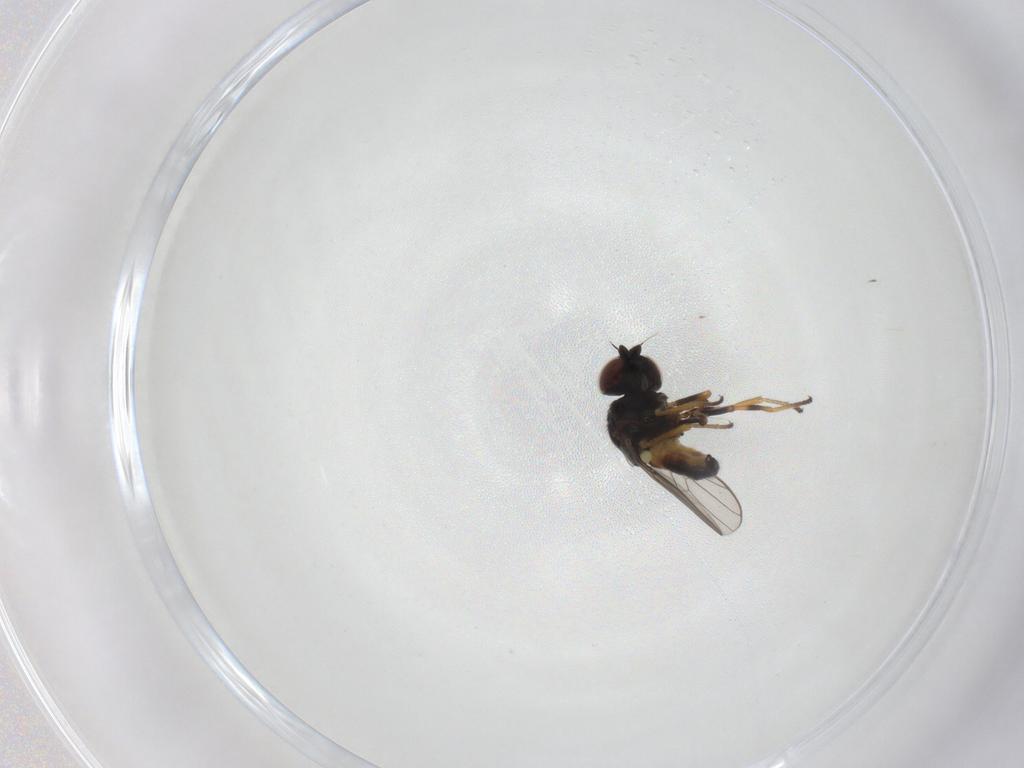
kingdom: Animalia
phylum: Arthropoda
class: Insecta
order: Diptera
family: Chloropidae
